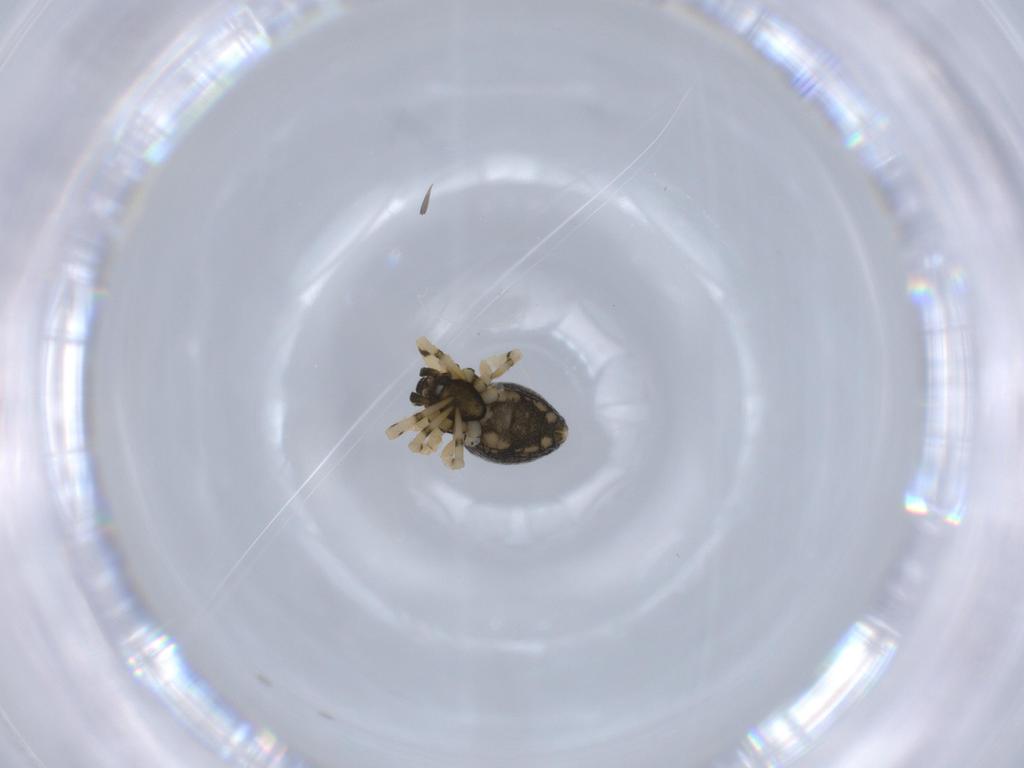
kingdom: Animalia
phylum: Arthropoda
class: Arachnida
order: Araneae
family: Theridiidae
